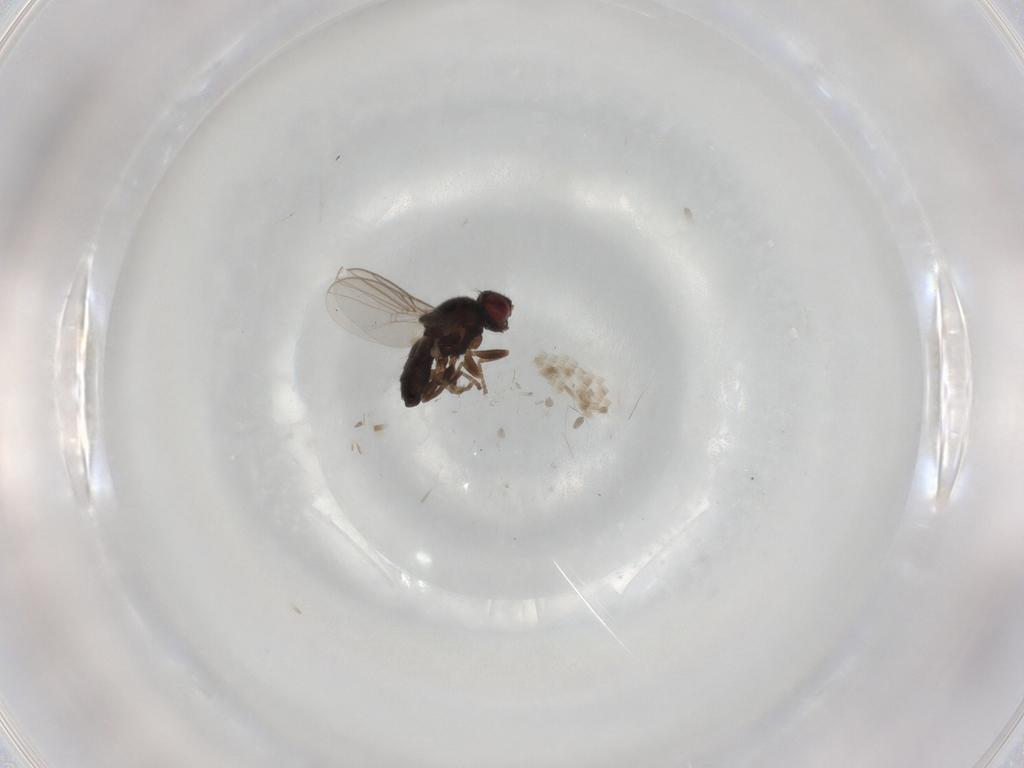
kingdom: Animalia
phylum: Arthropoda
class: Insecta
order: Diptera
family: Chloropidae
